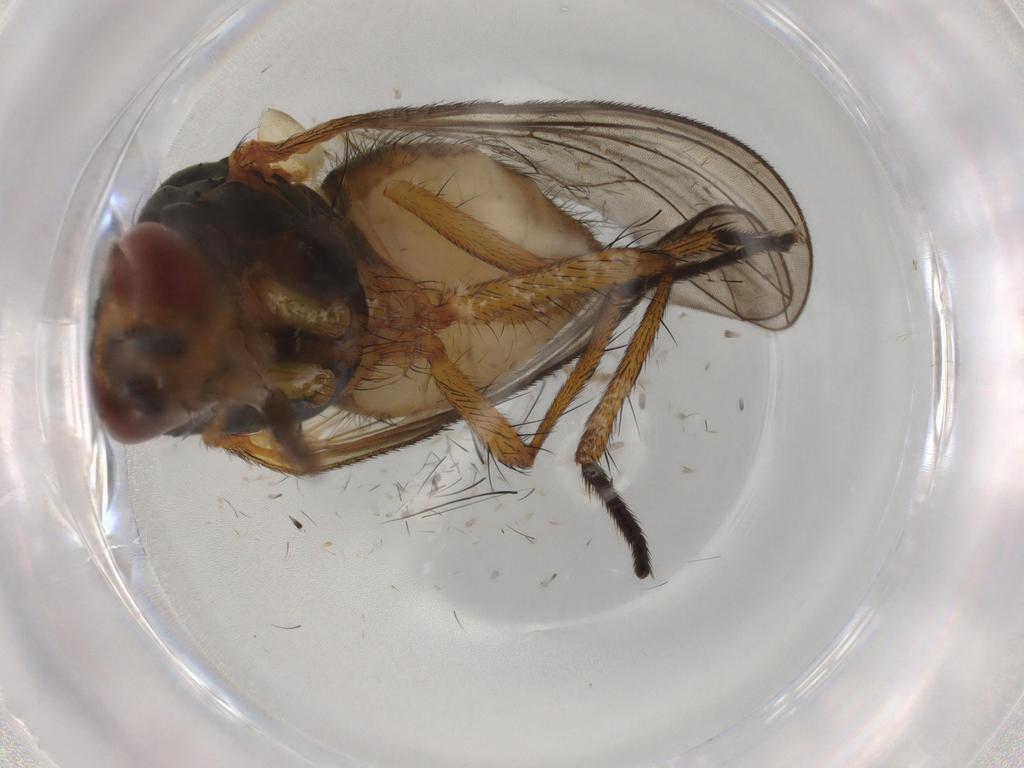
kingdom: Animalia
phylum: Arthropoda
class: Insecta
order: Diptera
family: Anthomyiidae
